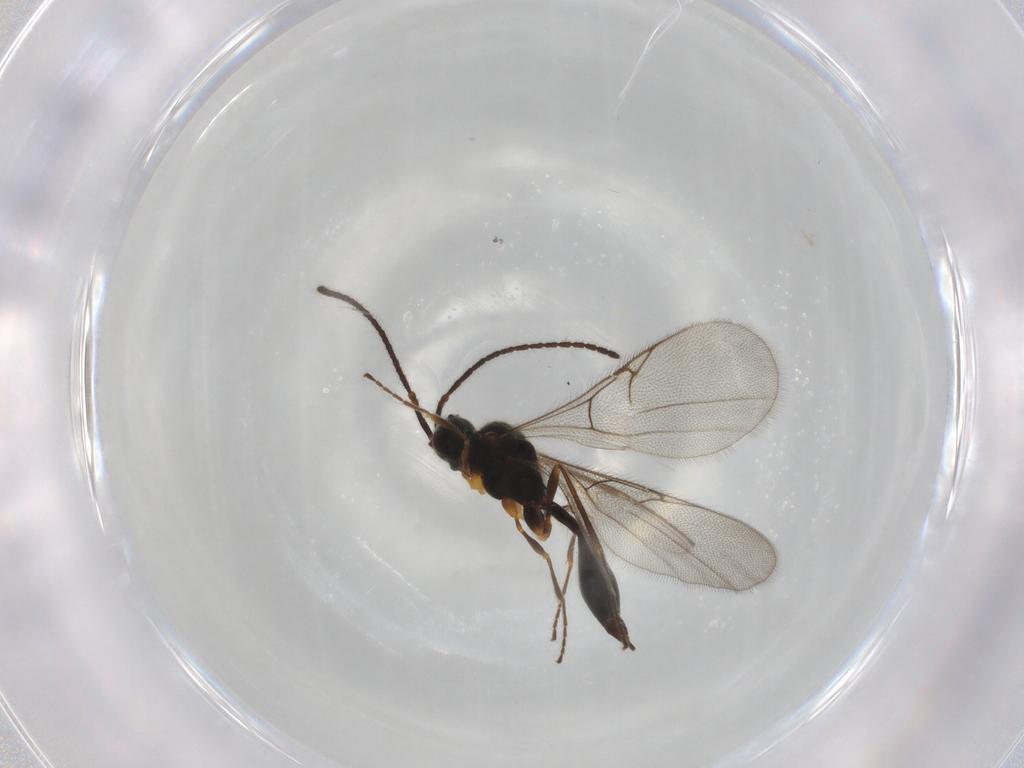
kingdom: Animalia
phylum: Arthropoda
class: Insecta
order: Hymenoptera
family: Diapriidae
